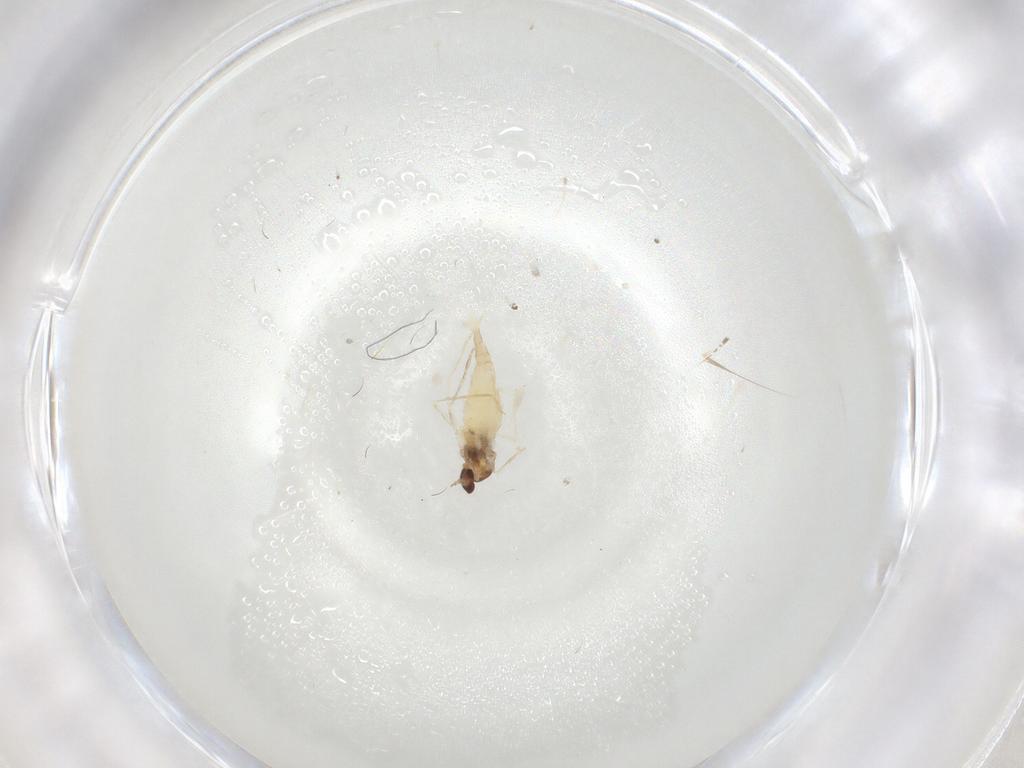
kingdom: Animalia
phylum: Arthropoda
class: Insecta
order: Diptera
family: Cecidomyiidae
